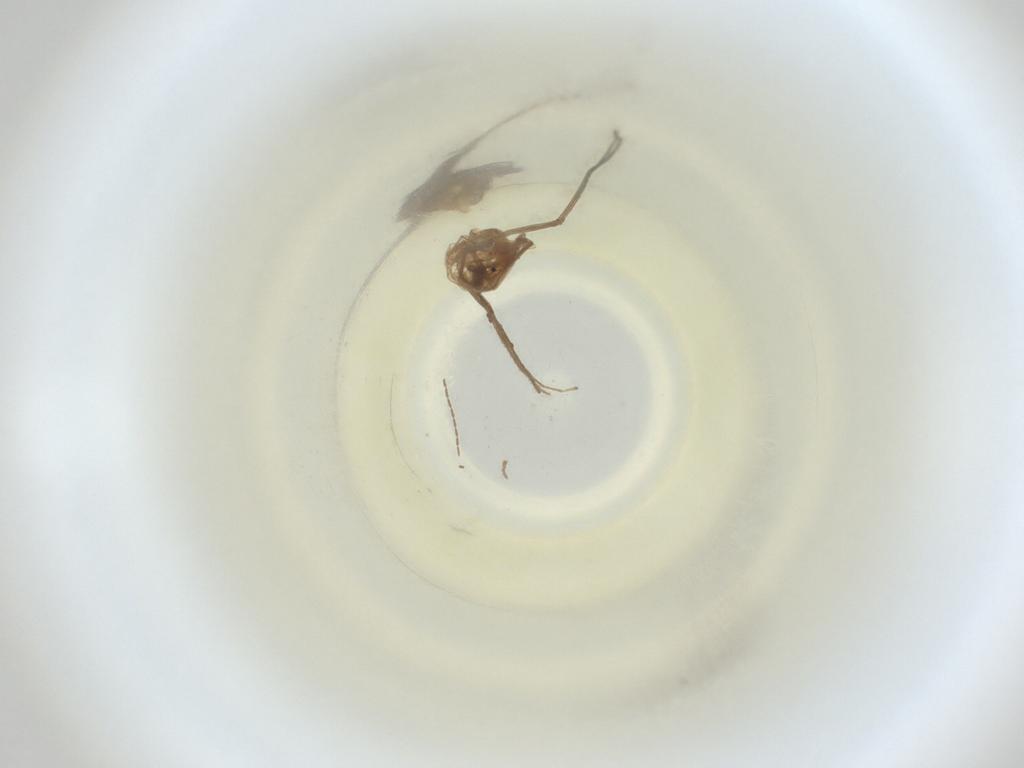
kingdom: Animalia
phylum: Arthropoda
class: Insecta
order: Diptera
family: Cecidomyiidae
